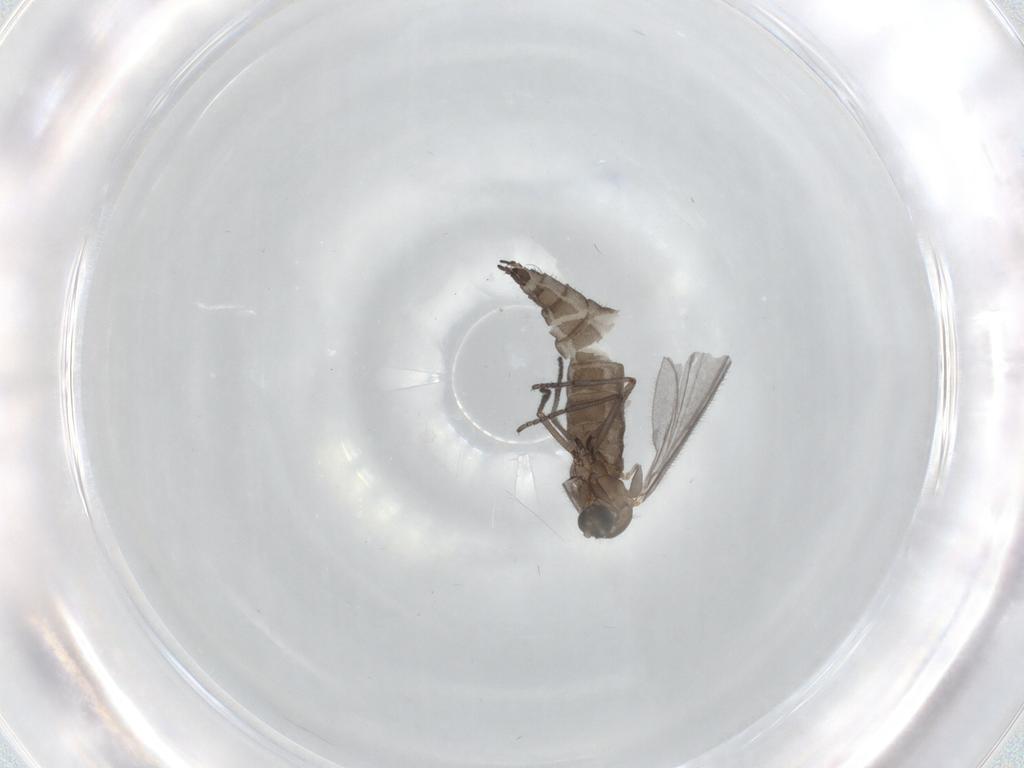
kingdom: Animalia
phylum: Arthropoda
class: Insecta
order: Diptera
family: Sciaridae
